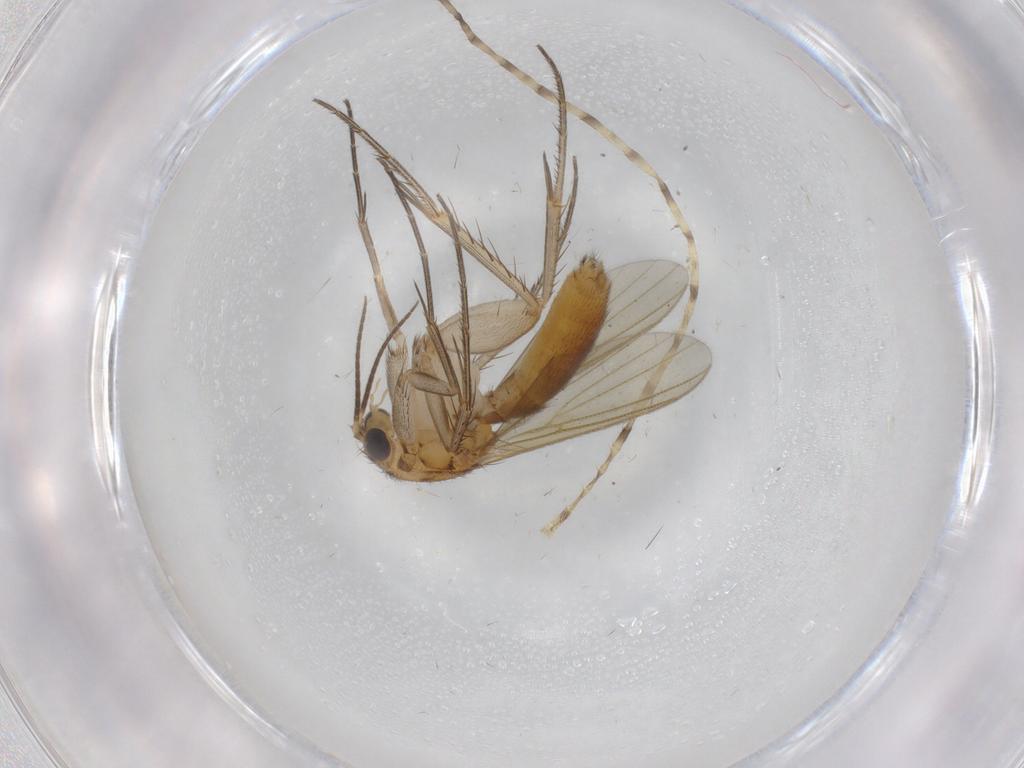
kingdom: Animalia
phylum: Arthropoda
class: Insecta
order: Diptera
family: Mycetophilidae
